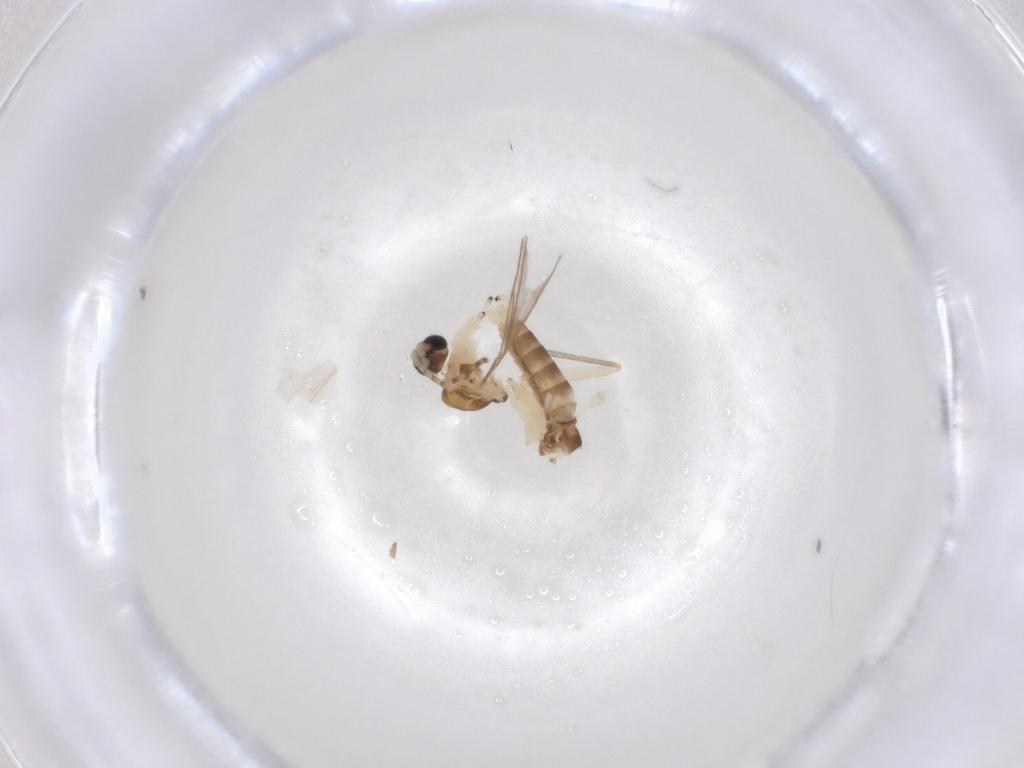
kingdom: Animalia
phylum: Arthropoda
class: Insecta
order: Diptera
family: Sciaridae
